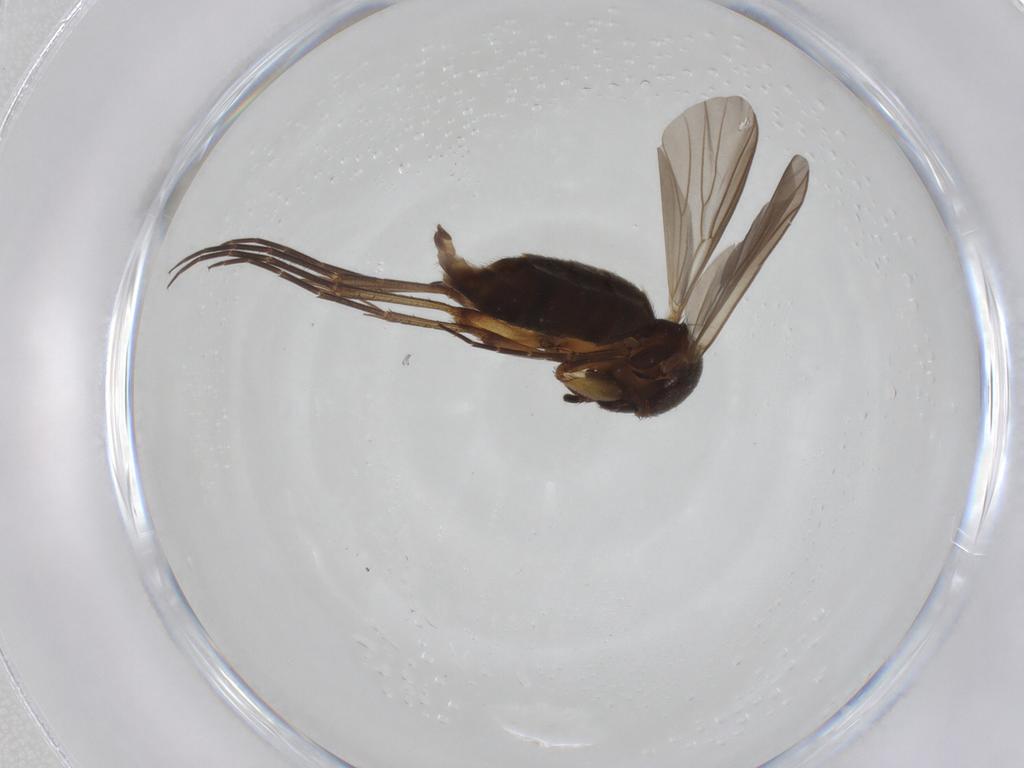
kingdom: Animalia
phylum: Arthropoda
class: Insecta
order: Diptera
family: Mycetophilidae
